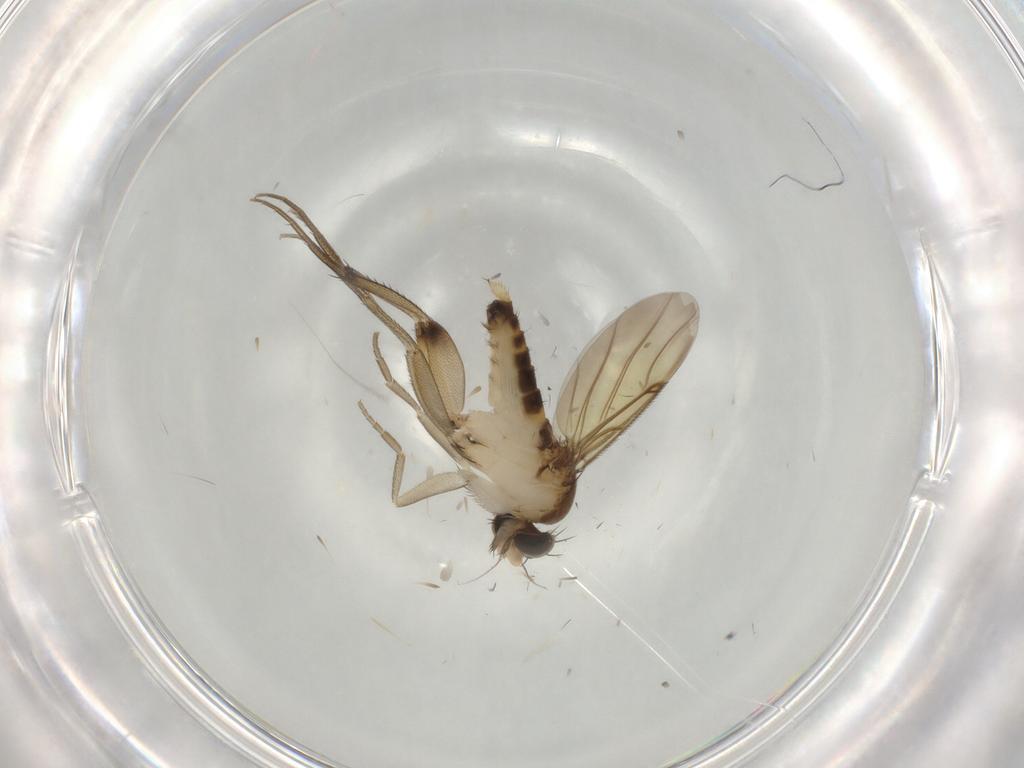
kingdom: Animalia
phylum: Arthropoda
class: Insecta
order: Diptera
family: Phoridae
